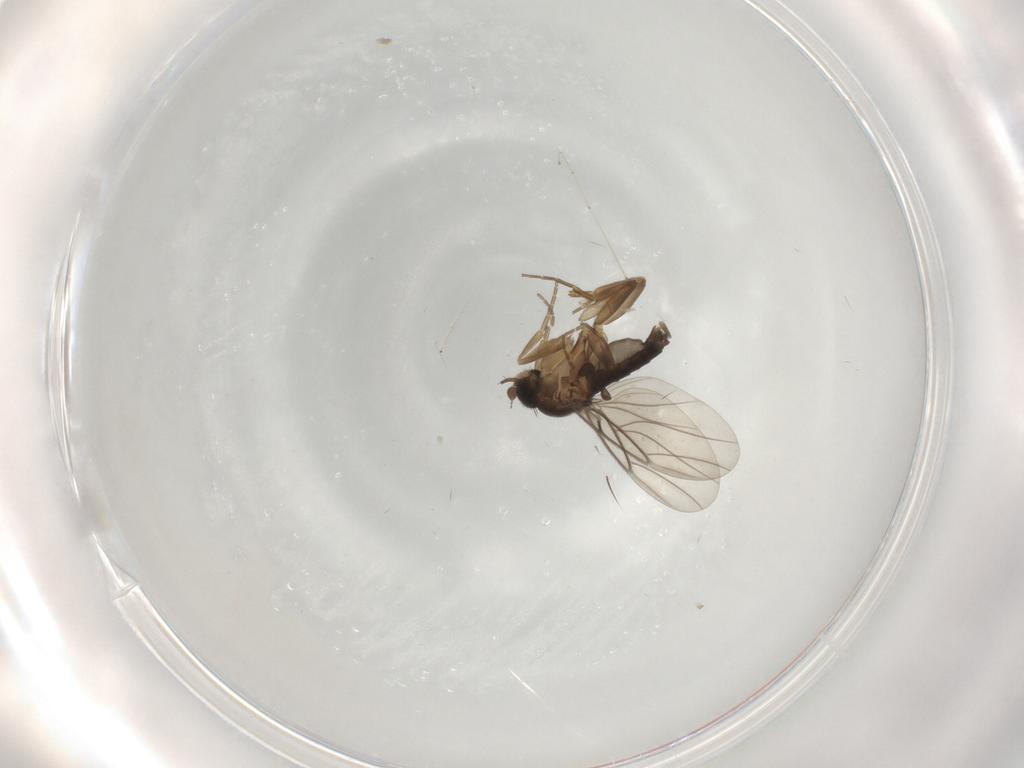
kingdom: Animalia
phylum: Arthropoda
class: Insecta
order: Diptera
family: Phoridae
